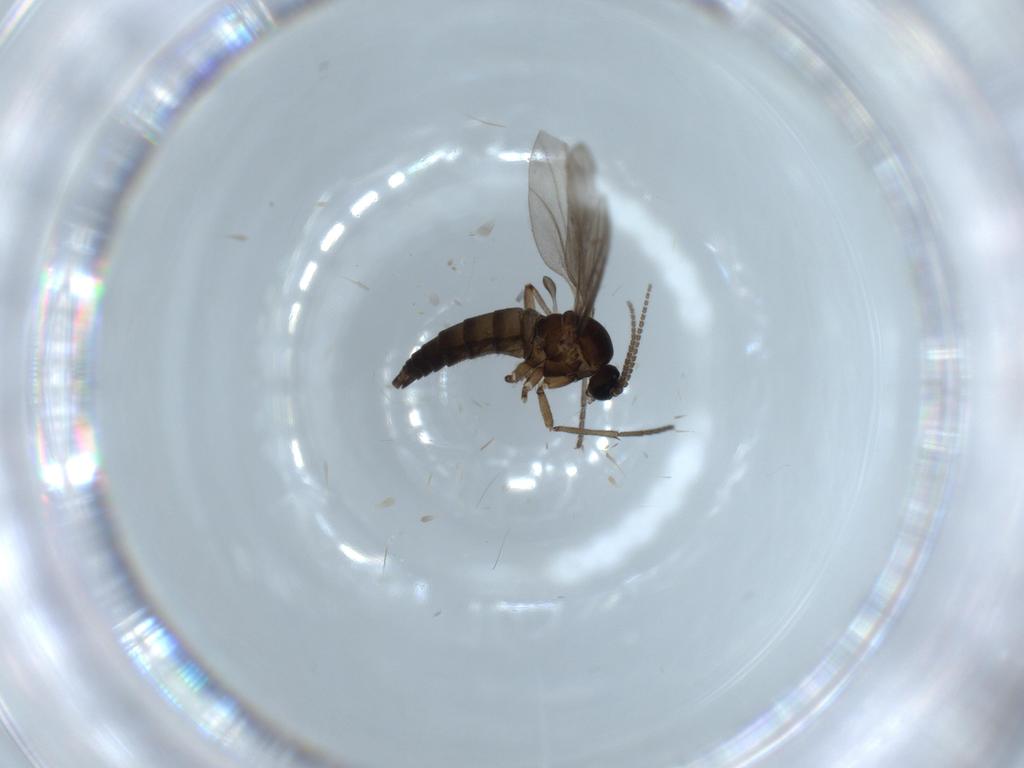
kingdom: Animalia
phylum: Arthropoda
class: Insecta
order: Diptera
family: Sciaridae
